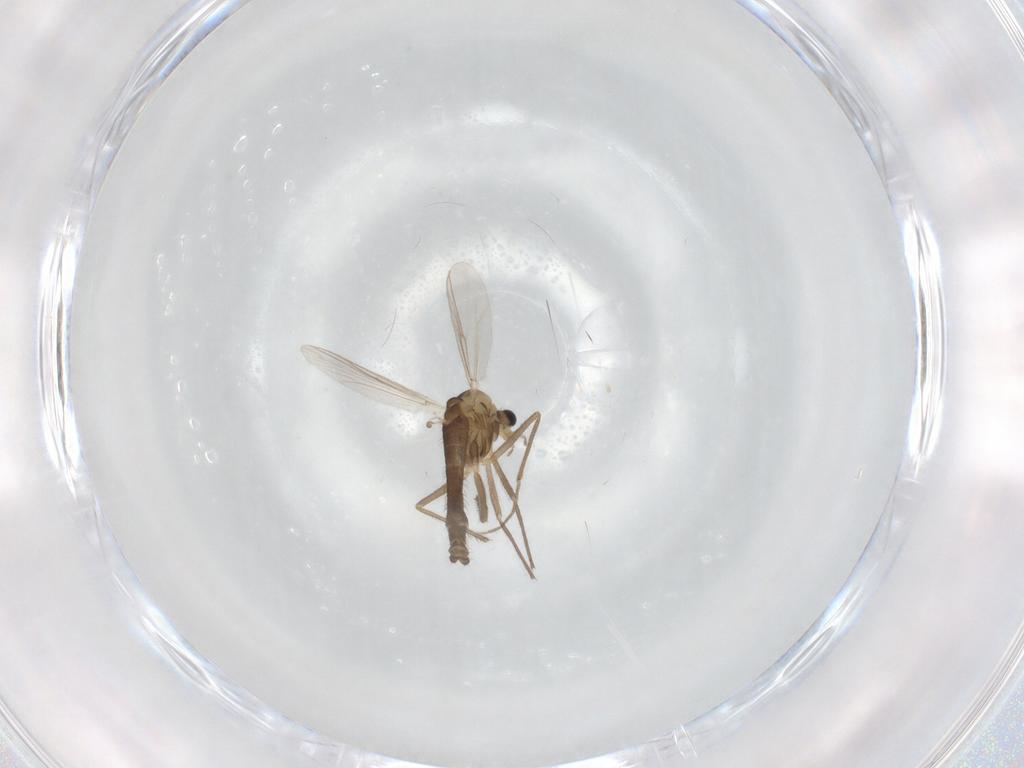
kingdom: Animalia
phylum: Arthropoda
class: Insecta
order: Diptera
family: Chironomidae
